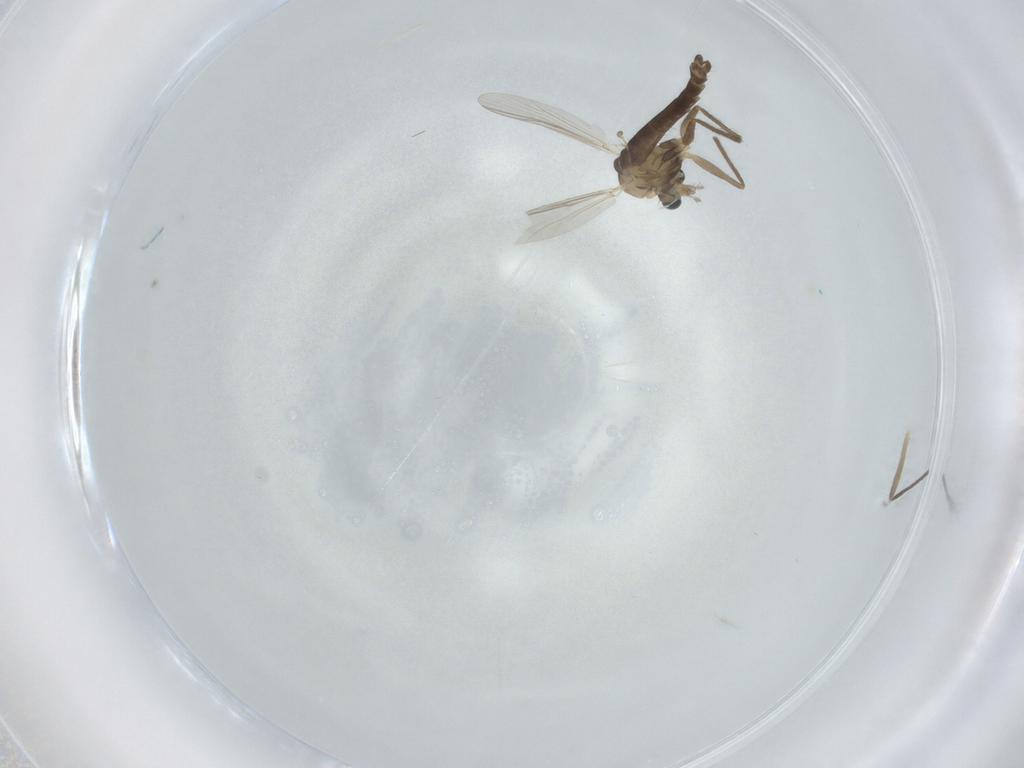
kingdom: Animalia
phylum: Arthropoda
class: Insecta
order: Diptera
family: Chironomidae
